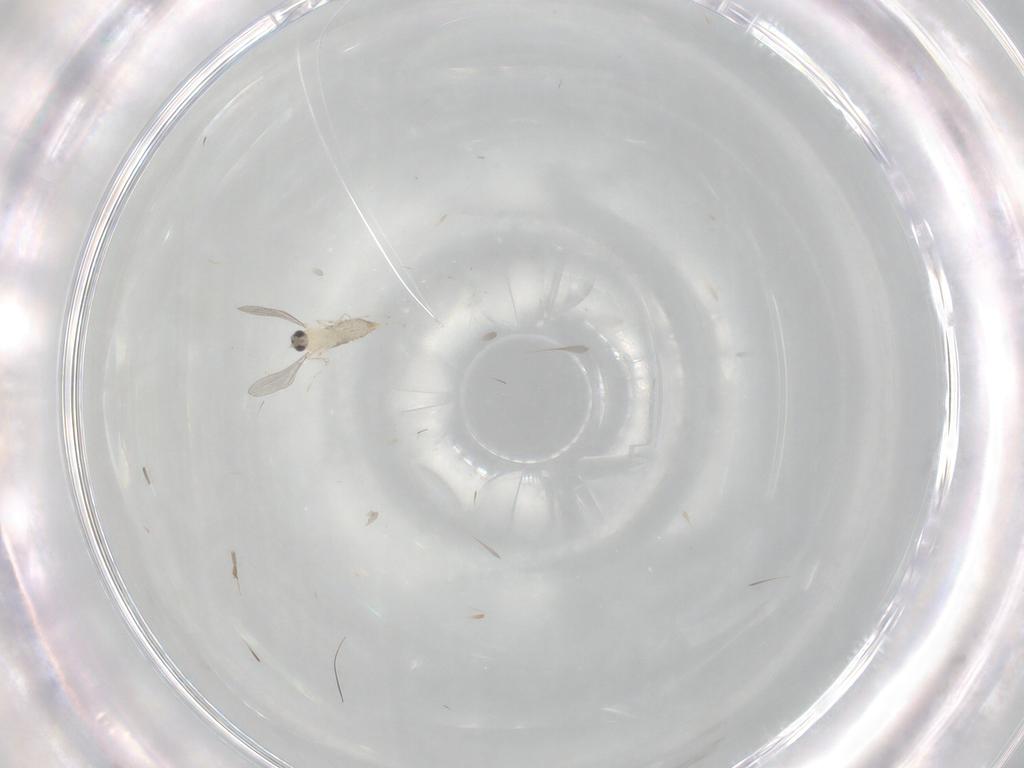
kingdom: Animalia
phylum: Arthropoda
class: Insecta
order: Diptera
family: Cecidomyiidae
